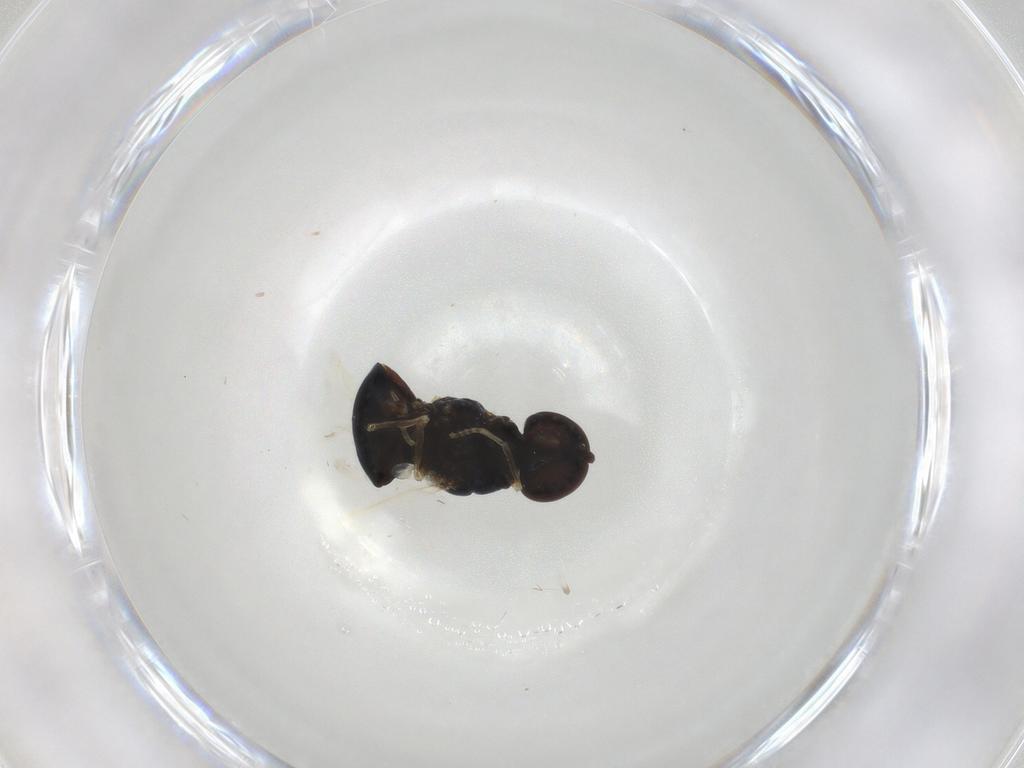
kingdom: Animalia
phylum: Arthropoda
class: Insecta
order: Diptera
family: Stratiomyidae
